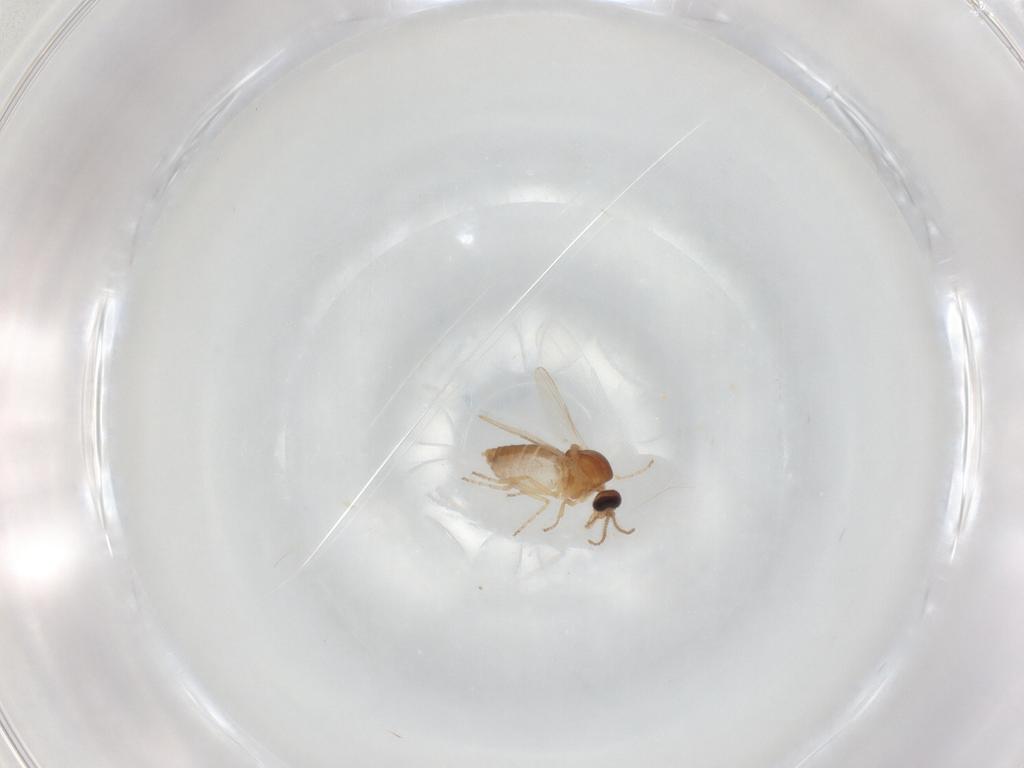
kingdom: Animalia
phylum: Arthropoda
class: Insecta
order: Diptera
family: Ceratopogonidae
